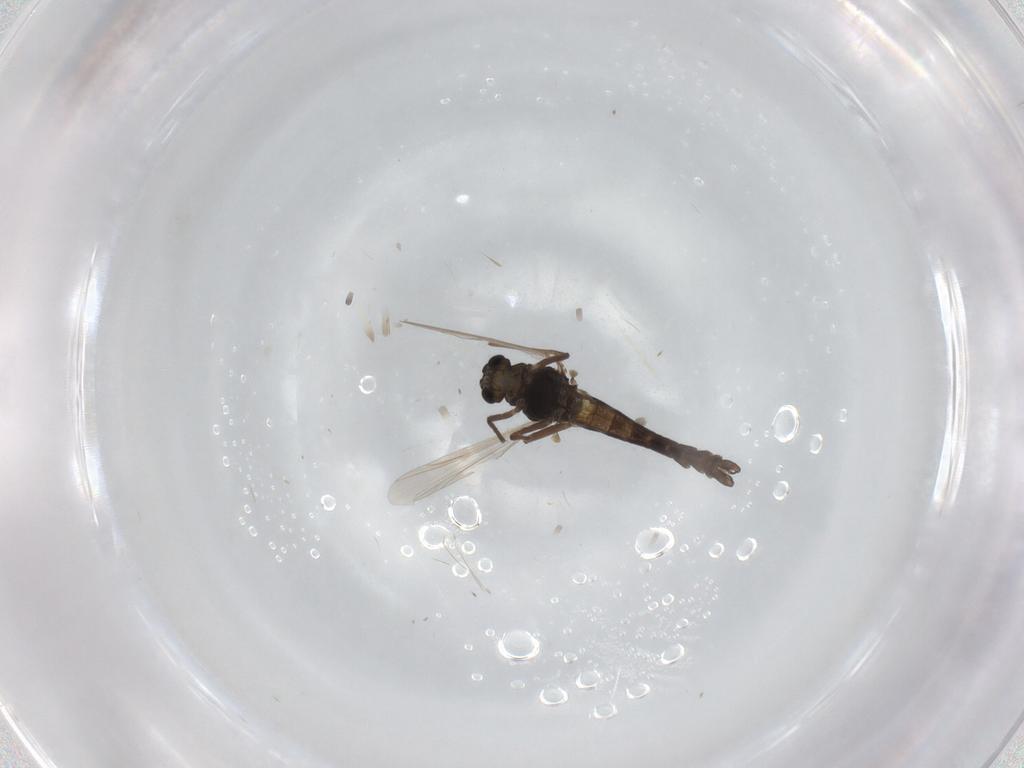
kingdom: Animalia
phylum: Arthropoda
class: Insecta
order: Diptera
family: Chironomidae
